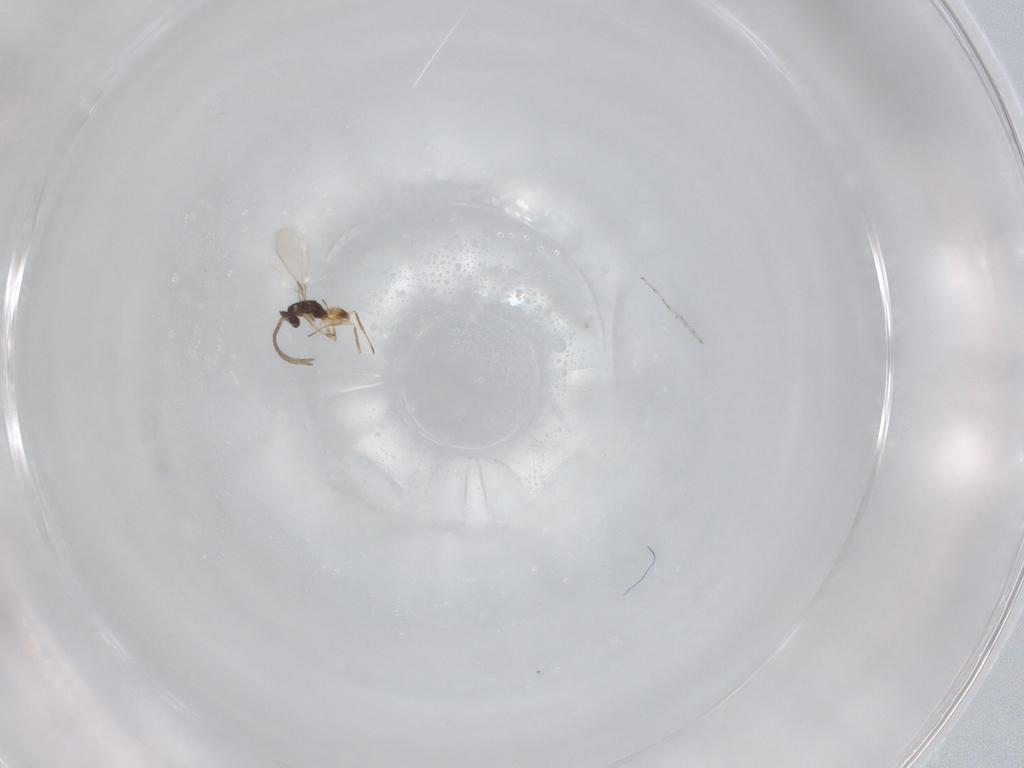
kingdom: Animalia
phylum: Arthropoda
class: Insecta
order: Hymenoptera
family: Mymaridae
